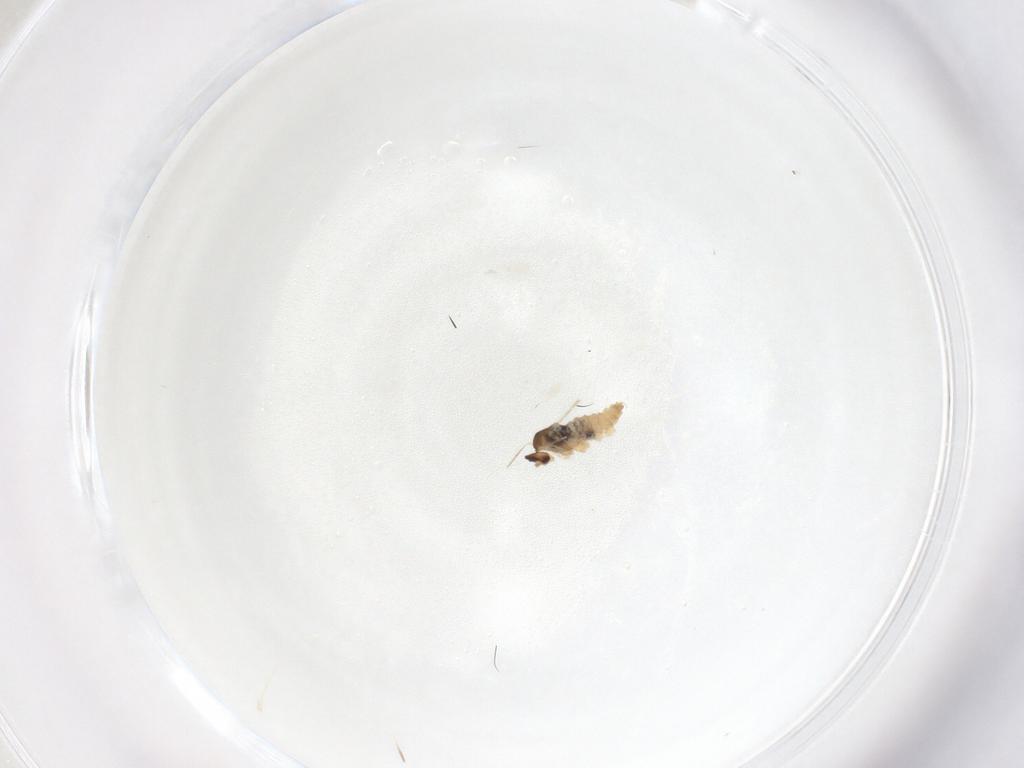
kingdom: Animalia
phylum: Arthropoda
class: Insecta
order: Diptera
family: Cecidomyiidae
